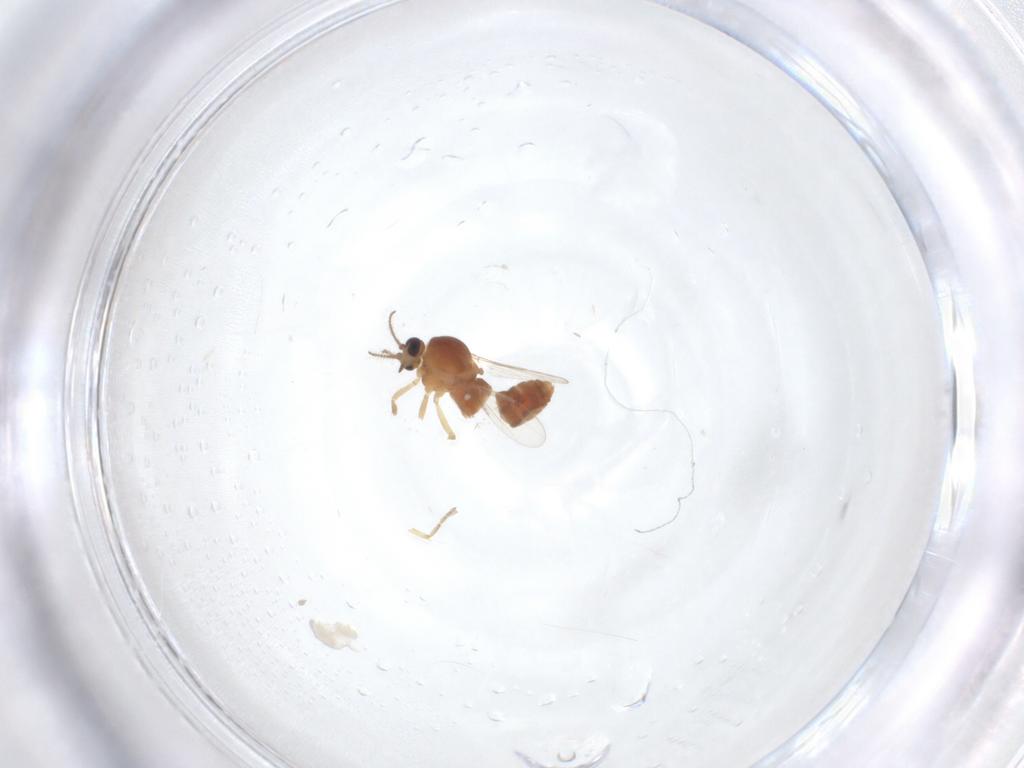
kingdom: Animalia
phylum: Arthropoda
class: Insecta
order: Diptera
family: Ceratopogonidae
